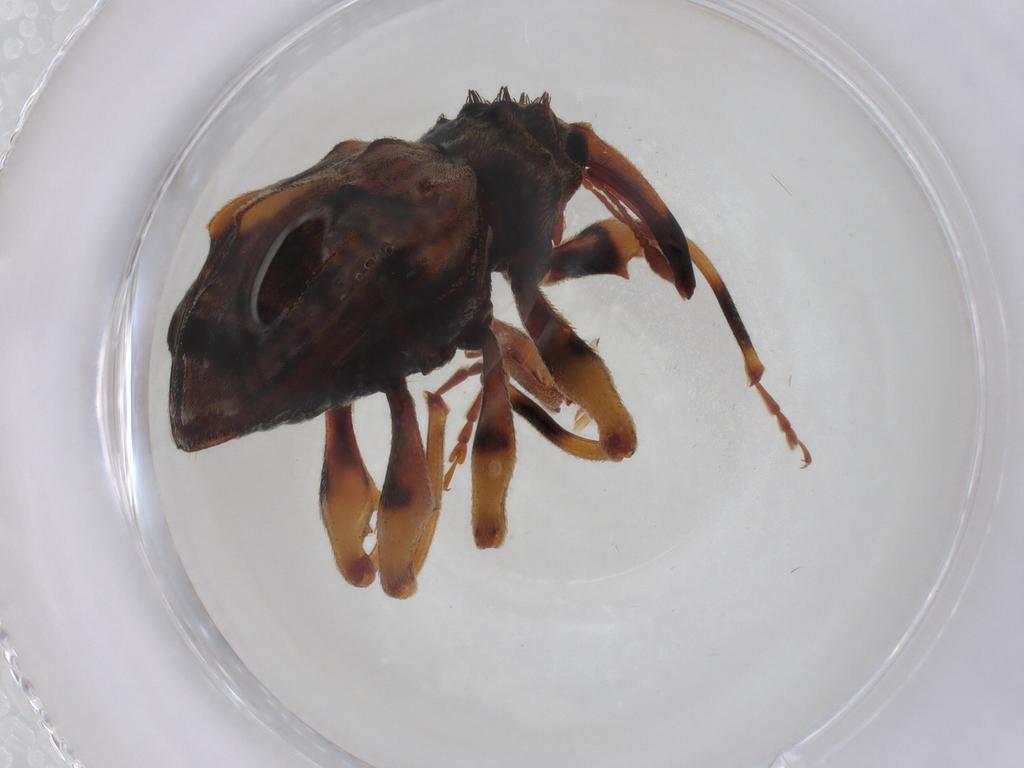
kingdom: Animalia
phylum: Arthropoda
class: Insecta
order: Coleoptera
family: Curculionidae
